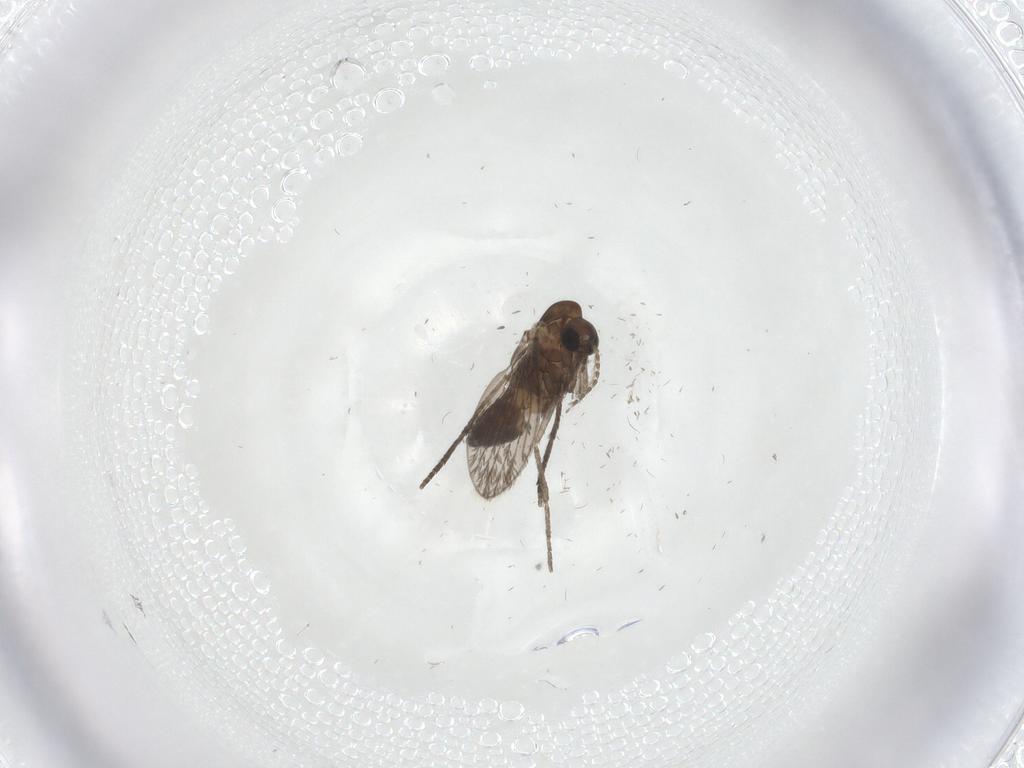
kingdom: Animalia
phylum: Arthropoda
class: Insecta
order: Diptera
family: Chironomidae
